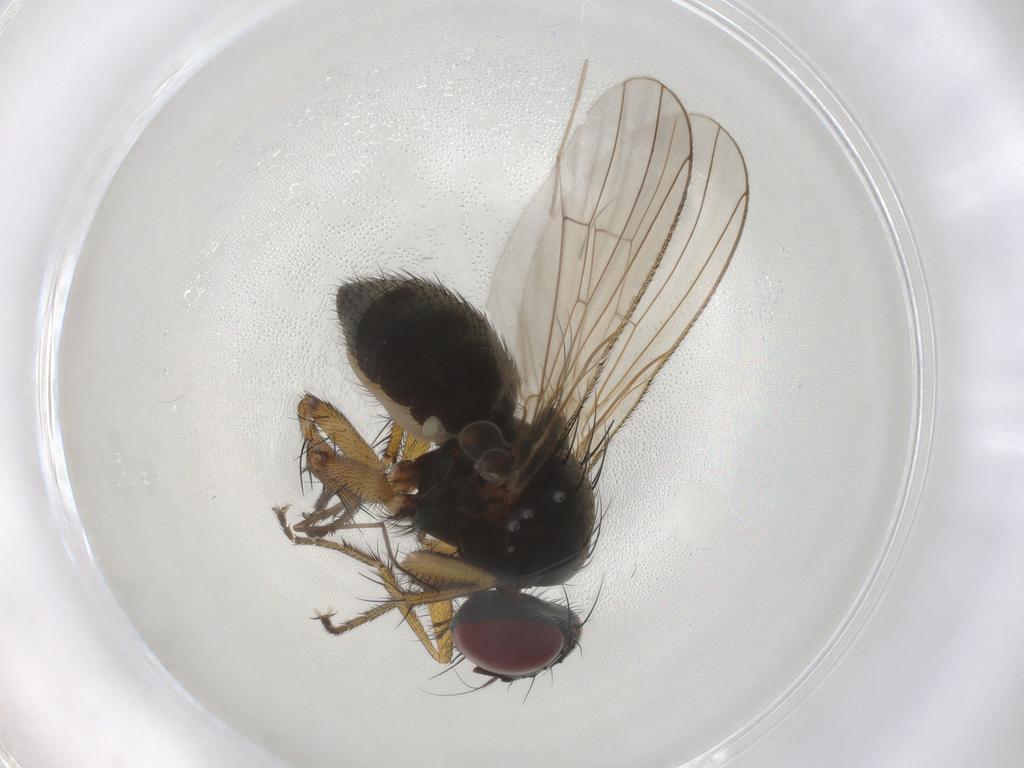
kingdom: Animalia
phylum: Arthropoda
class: Insecta
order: Diptera
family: Muscidae
